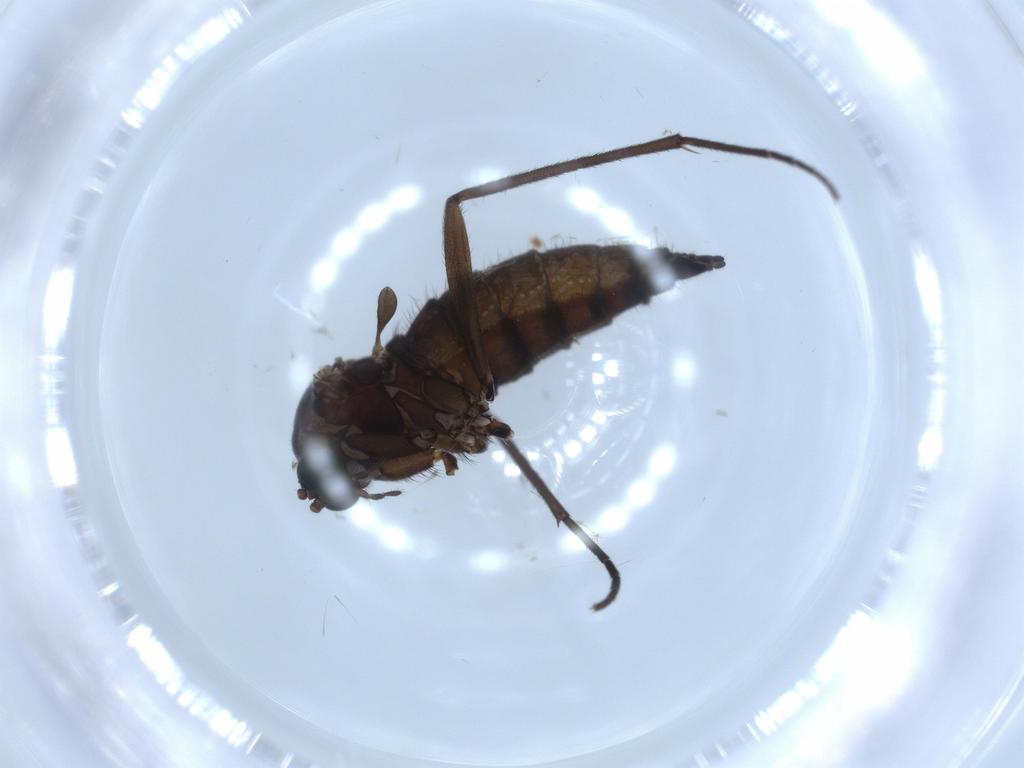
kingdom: Animalia
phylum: Arthropoda
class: Insecta
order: Diptera
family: Sciaridae
